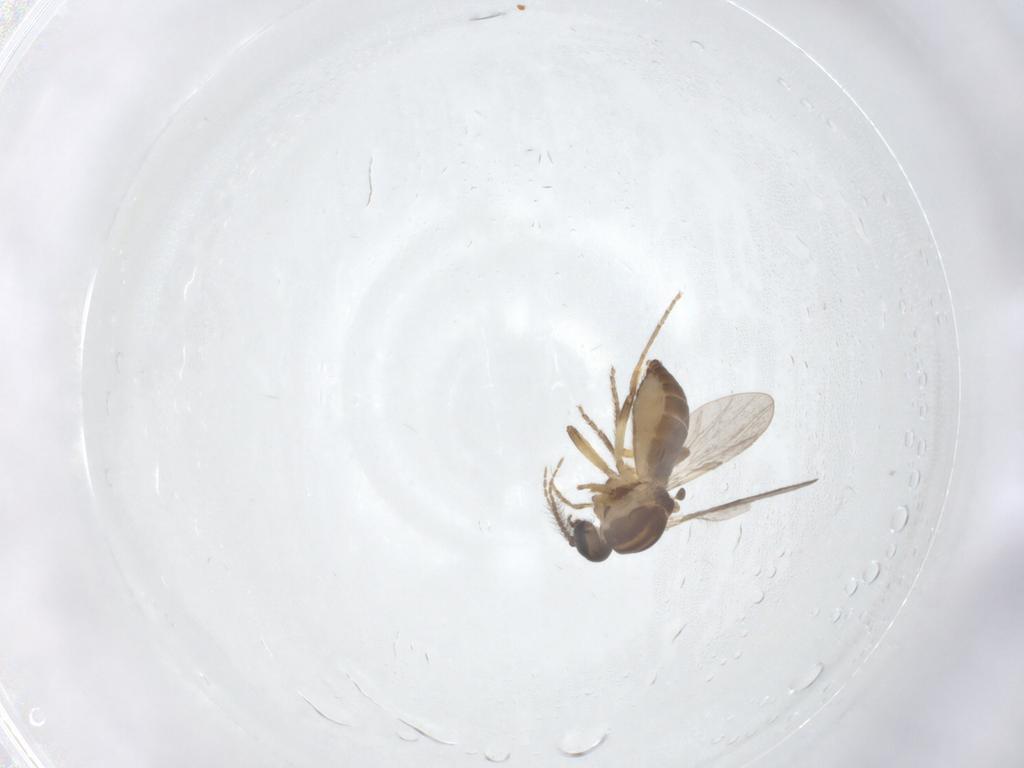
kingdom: Animalia
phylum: Arthropoda
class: Insecta
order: Diptera
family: Ceratopogonidae
